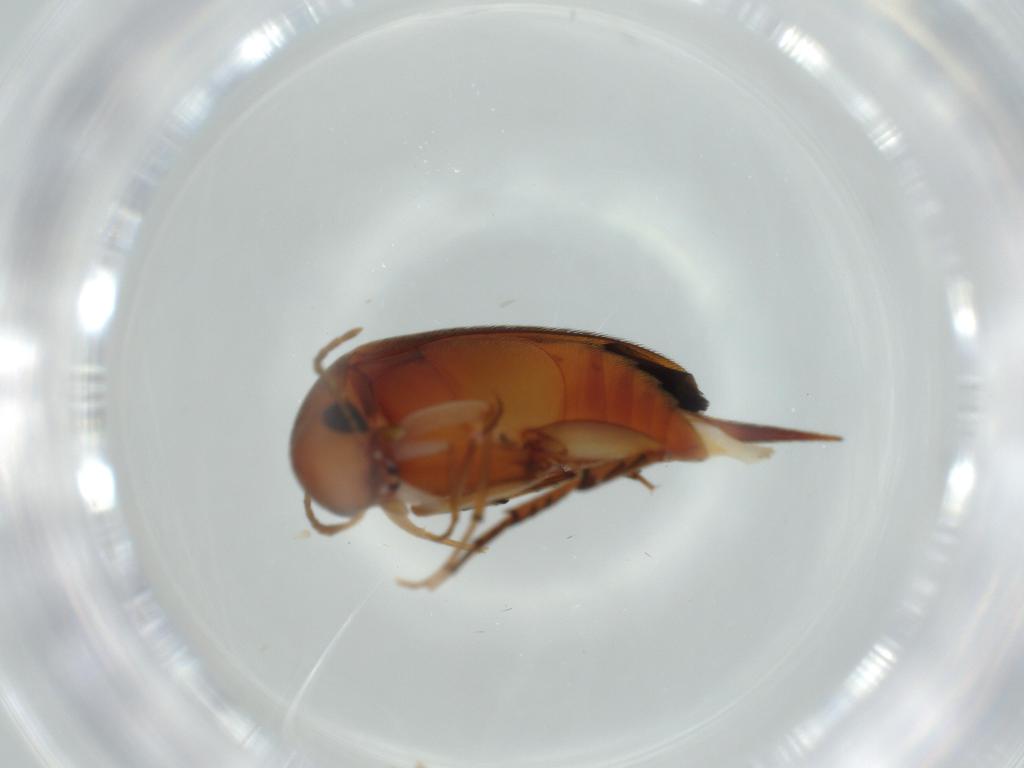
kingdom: Animalia
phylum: Arthropoda
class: Insecta
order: Coleoptera
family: Mordellidae
